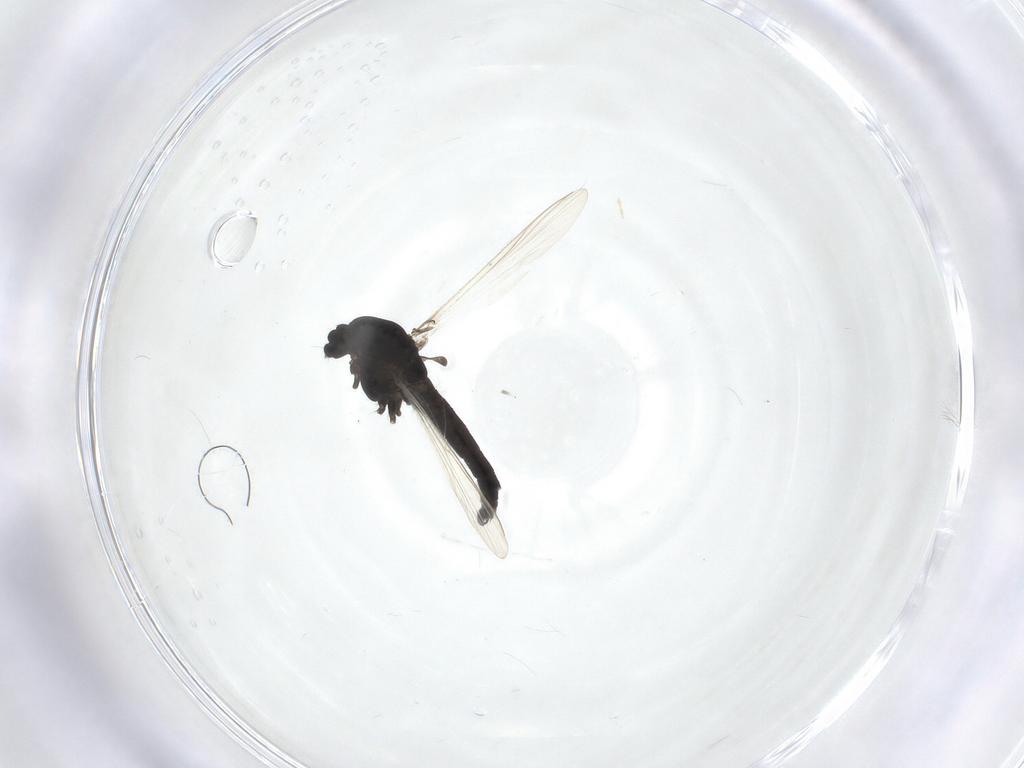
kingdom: Animalia
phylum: Arthropoda
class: Insecta
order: Diptera
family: Chironomidae
